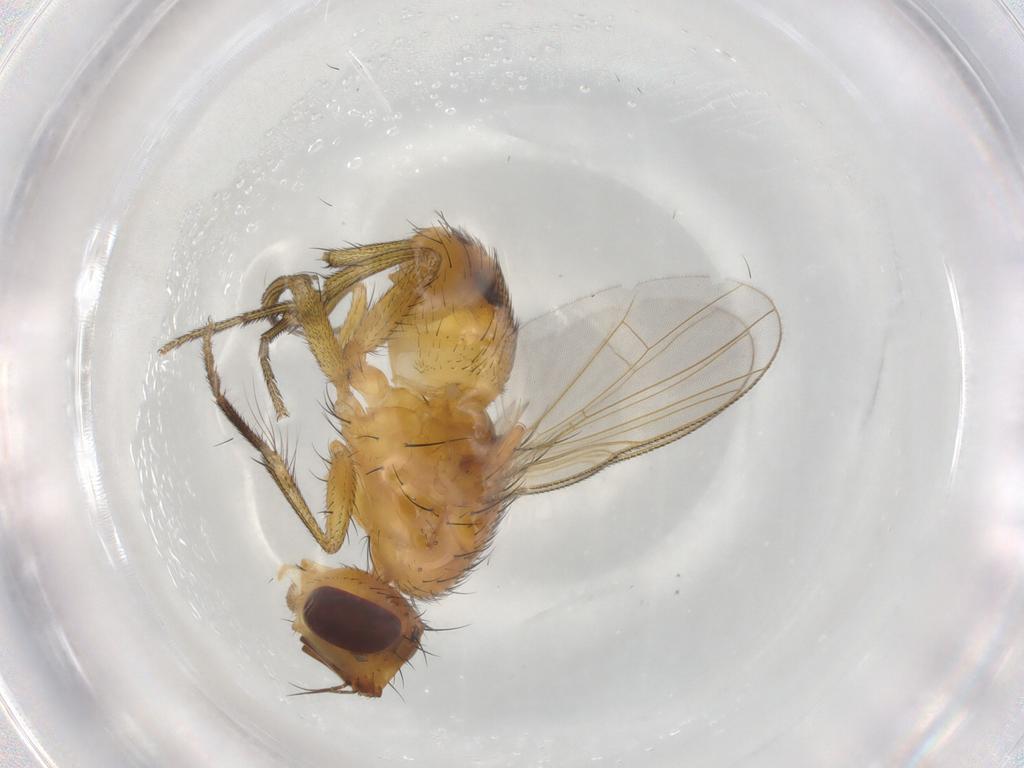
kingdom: Animalia
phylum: Arthropoda
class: Insecta
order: Diptera
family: Muscidae
